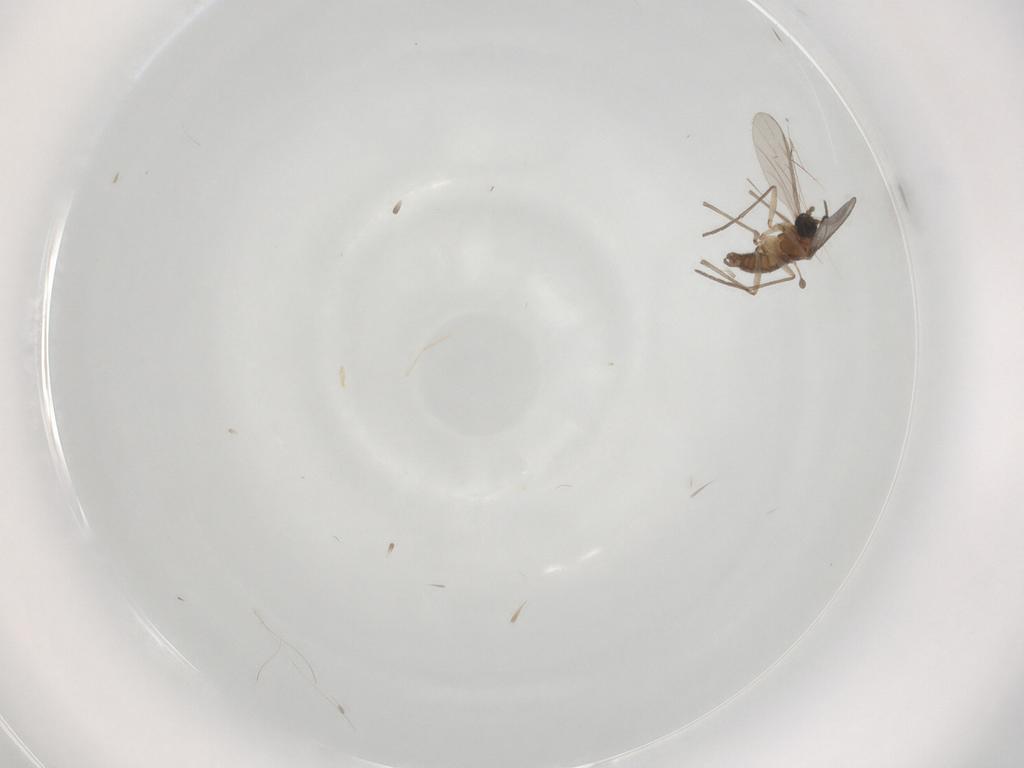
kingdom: Animalia
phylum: Arthropoda
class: Insecta
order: Diptera
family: Sciaridae
